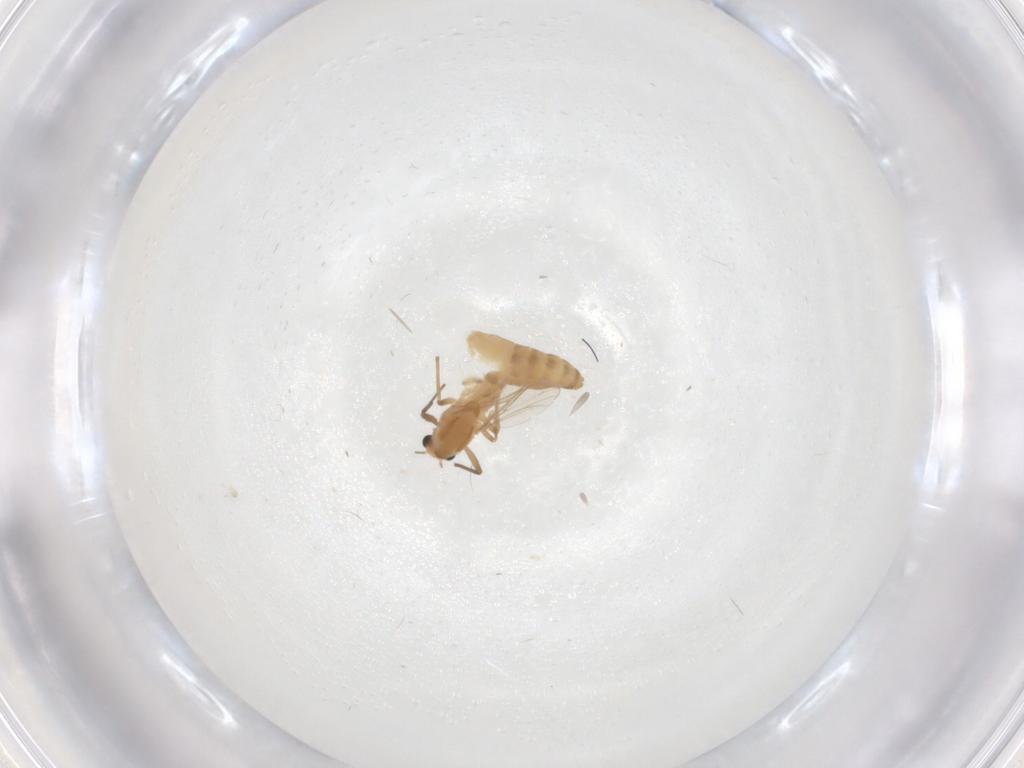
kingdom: Animalia
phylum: Arthropoda
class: Insecta
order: Diptera
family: Chironomidae
